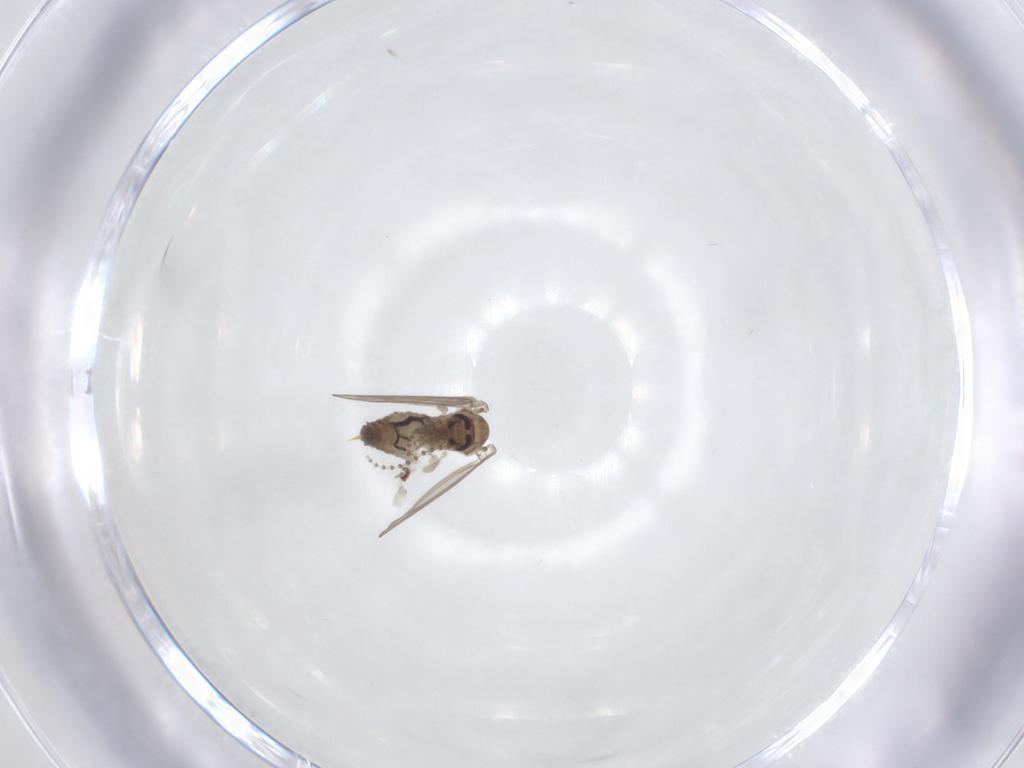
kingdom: Animalia
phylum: Arthropoda
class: Insecta
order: Diptera
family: Psychodidae
